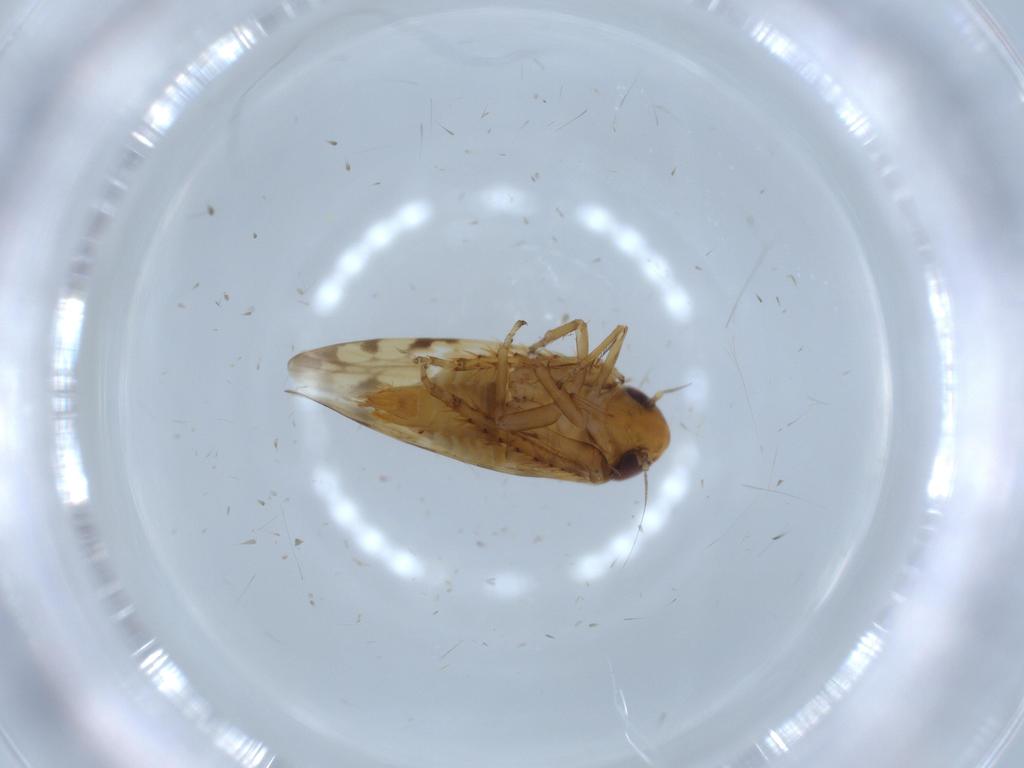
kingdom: Animalia
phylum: Arthropoda
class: Insecta
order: Hemiptera
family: Cicadellidae
